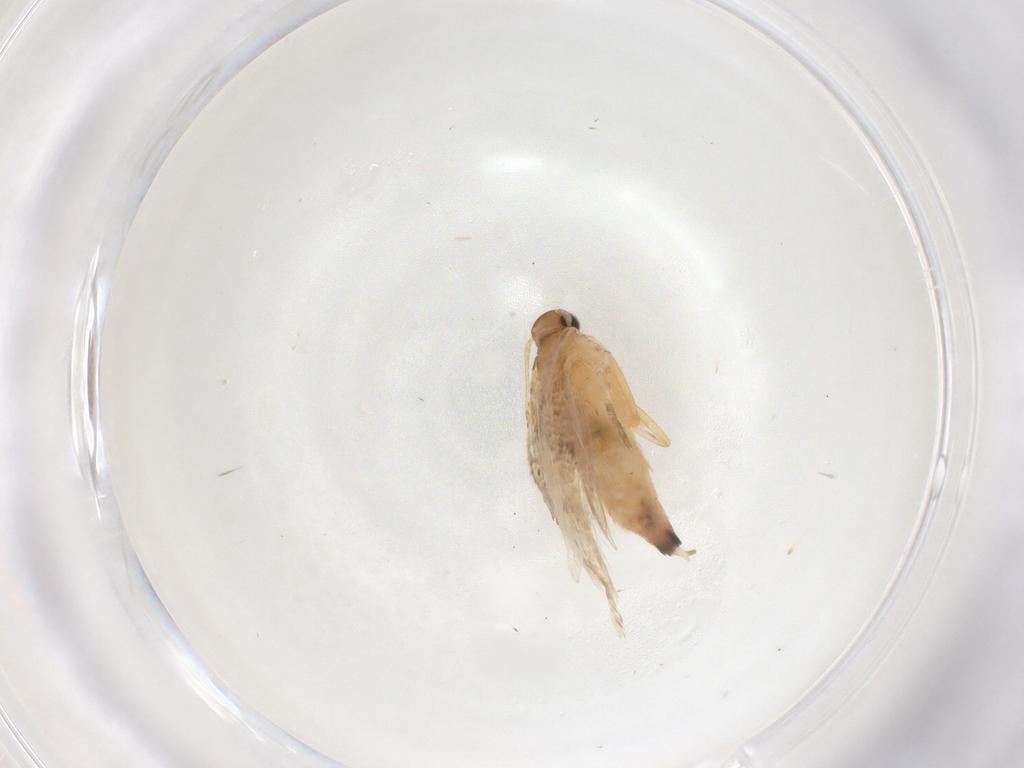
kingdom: Animalia
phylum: Arthropoda
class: Insecta
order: Lepidoptera
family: Gelechiidae
